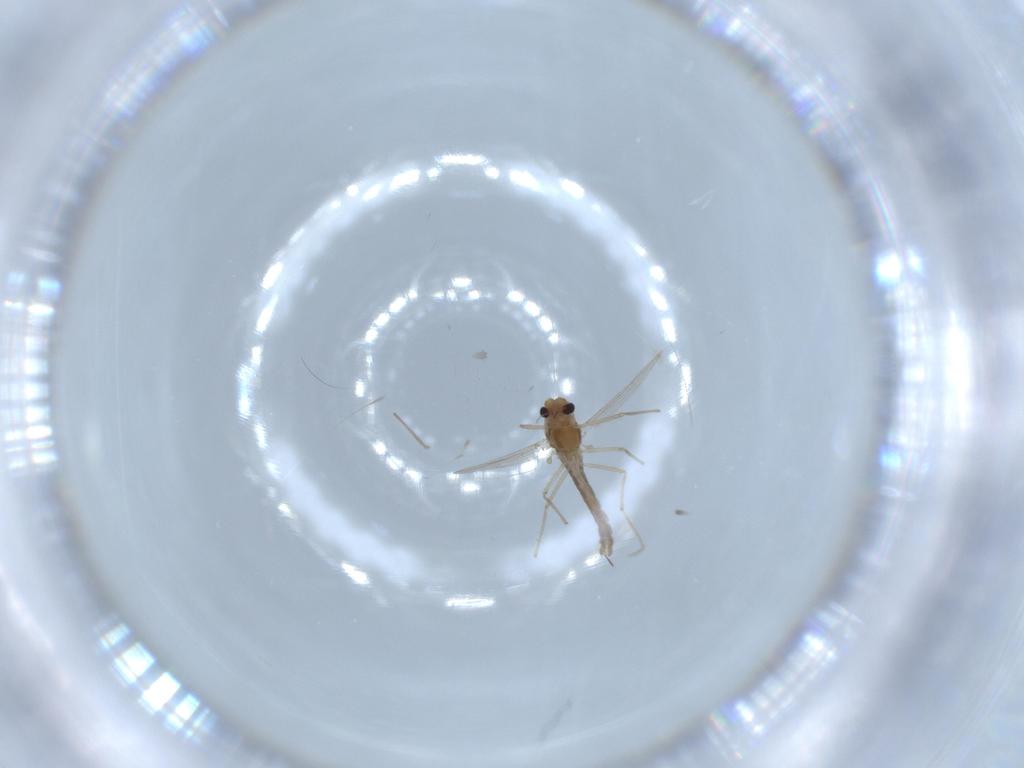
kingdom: Animalia
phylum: Arthropoda
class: Insecta
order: Diptera
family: Chironomidae
